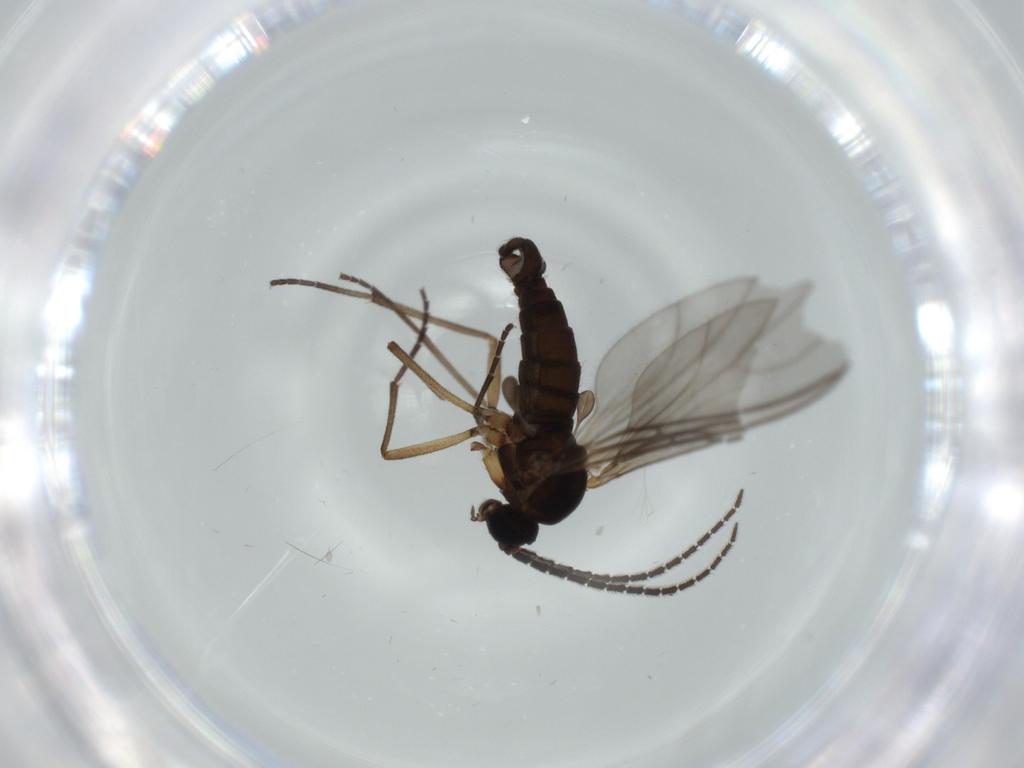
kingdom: Animalia
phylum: Arthropoda
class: Insecta
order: Diptera
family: Sciaridae
